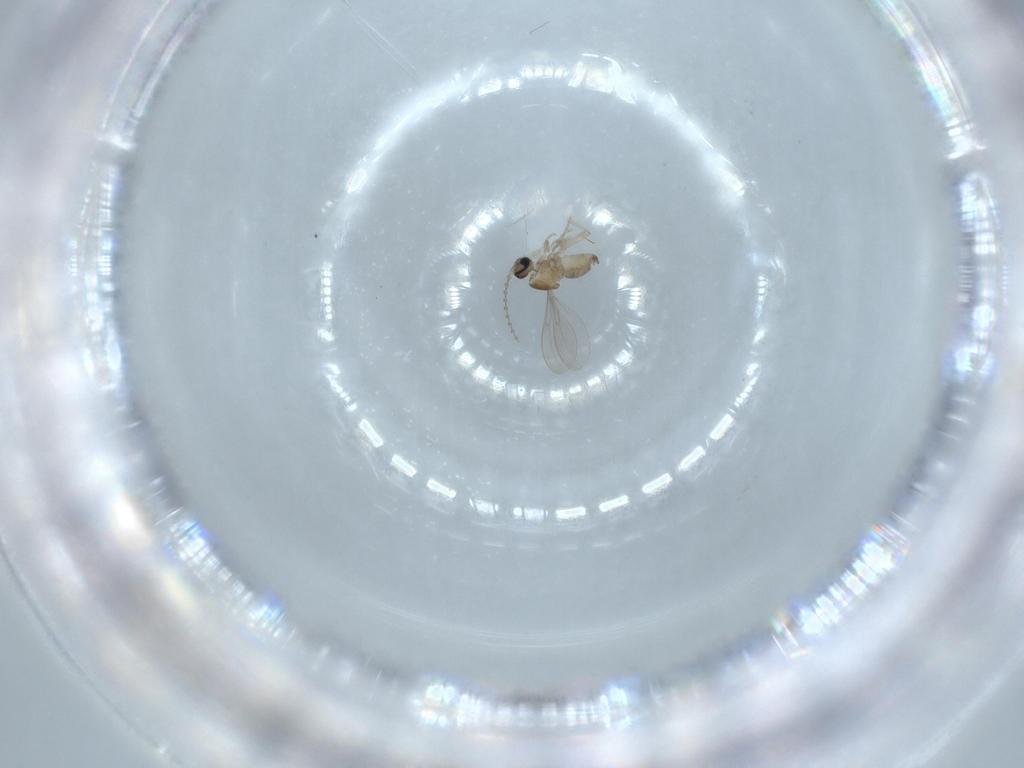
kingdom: Animalia
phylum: Arthropoda
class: Insecta
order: Diptera
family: Cecidomyiidae
